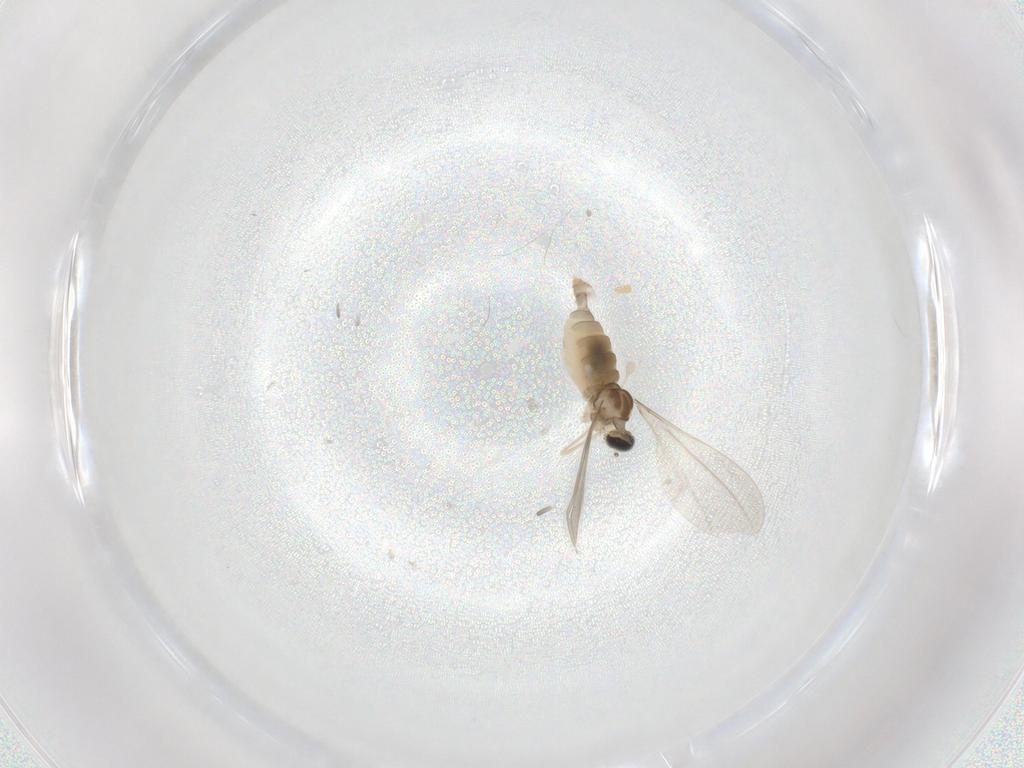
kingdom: Animalia
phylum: Arthropoda
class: Insecta
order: Diptera
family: Cecidomyiidae
